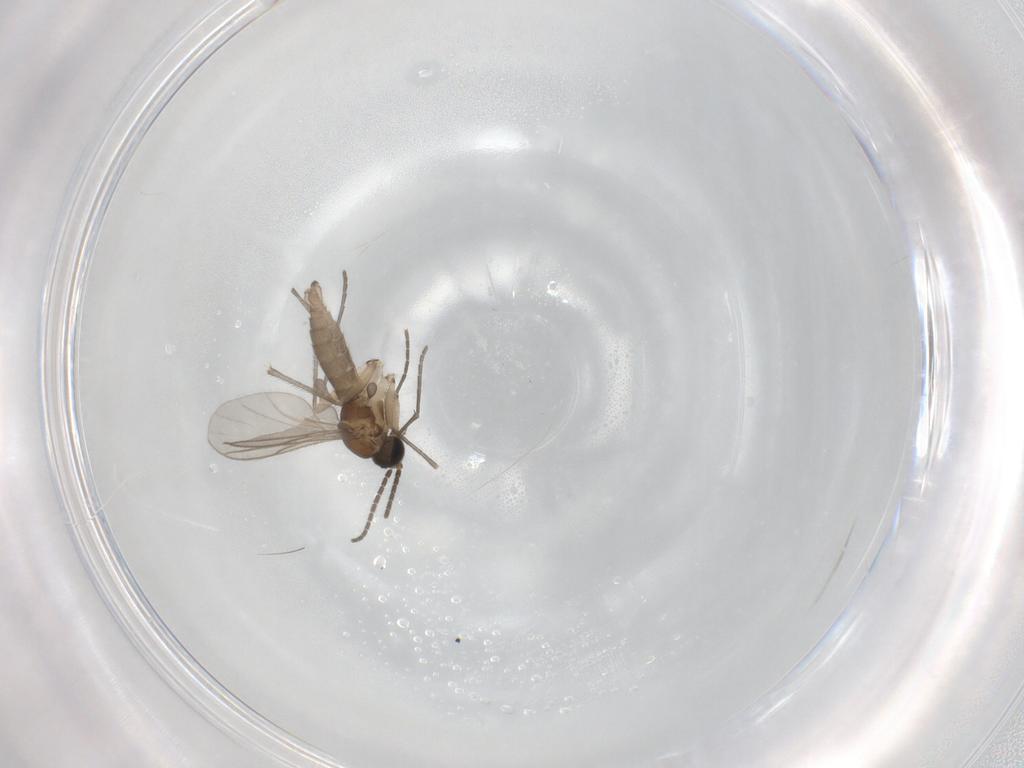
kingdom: Animalia
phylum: Arthropoda
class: Insecta
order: Diptera
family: Sciaridae
